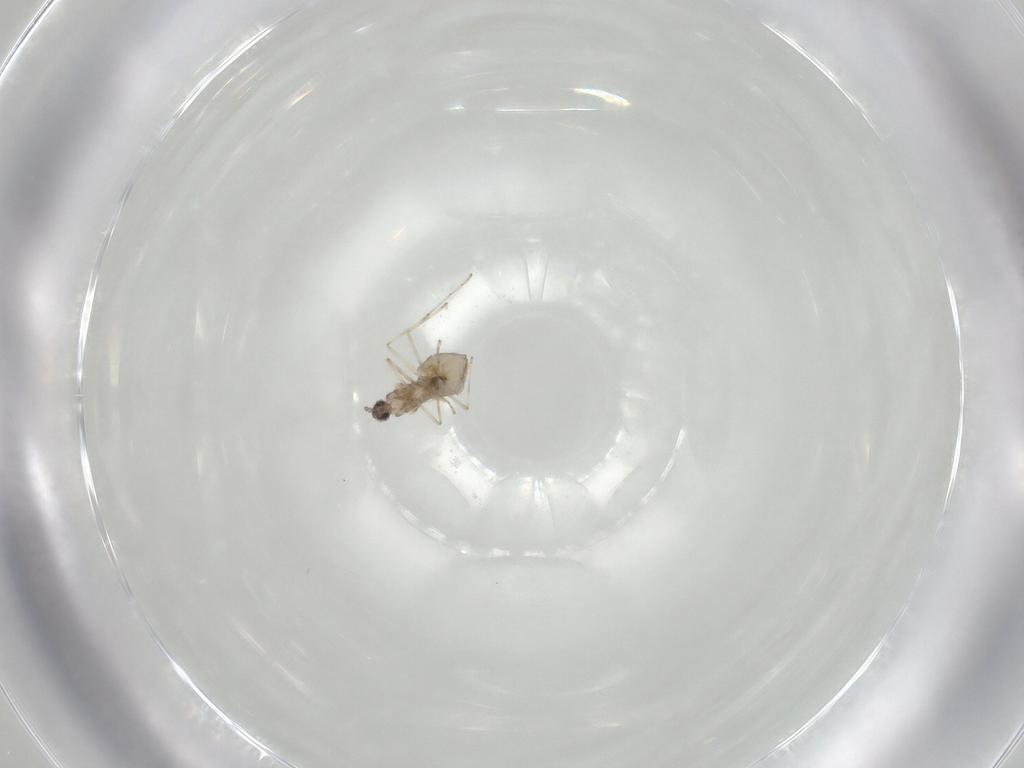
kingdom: Animalia
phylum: Arthropoda
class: Insecta
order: Diptera
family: Cecidomyiidae
